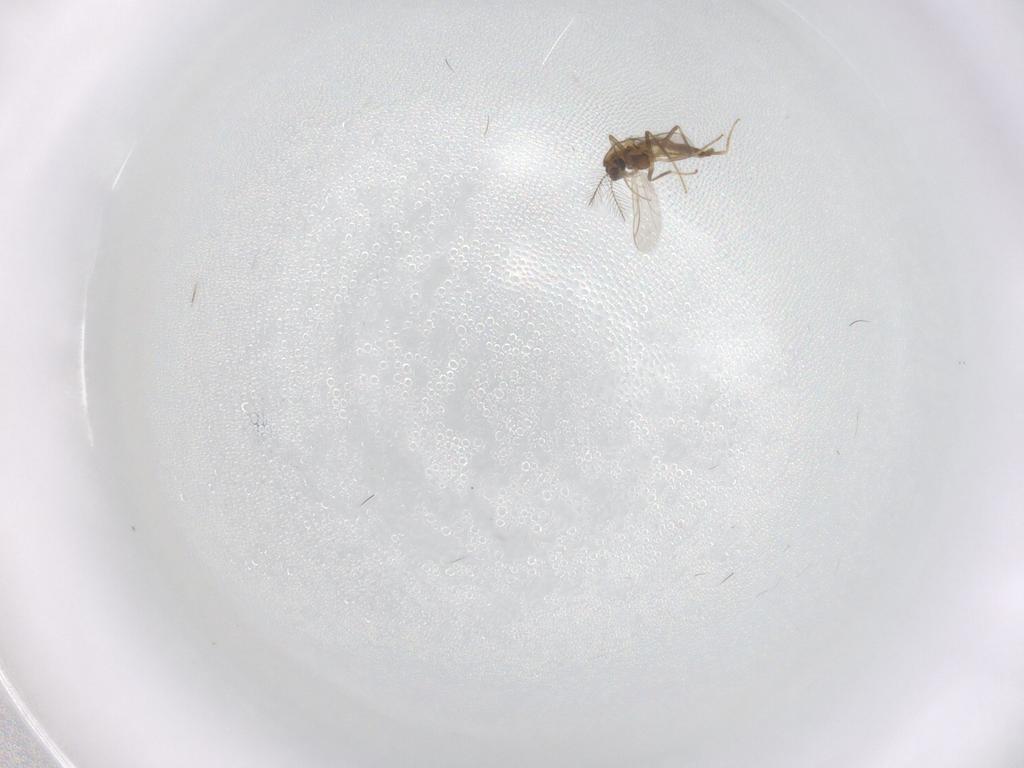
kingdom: Animalia
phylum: Arthropoda
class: Insecta
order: Diptera
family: Chironomidae
